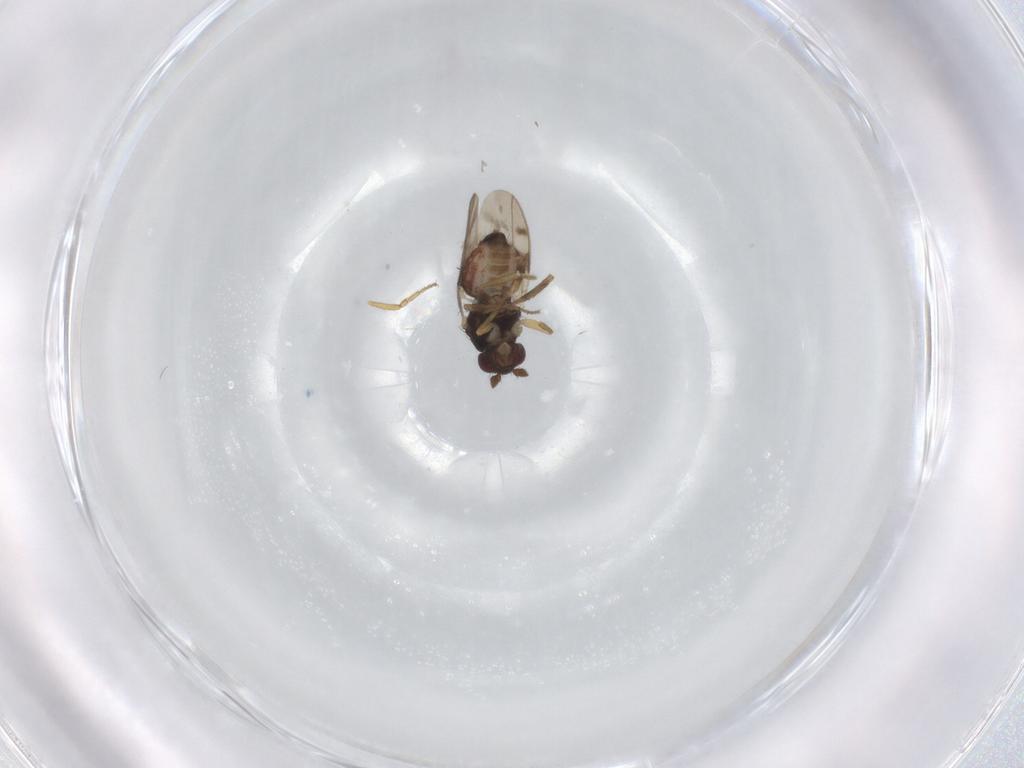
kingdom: Animalia
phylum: Arthropoda
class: Insecta
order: Diptera
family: Sphaeroceridae
